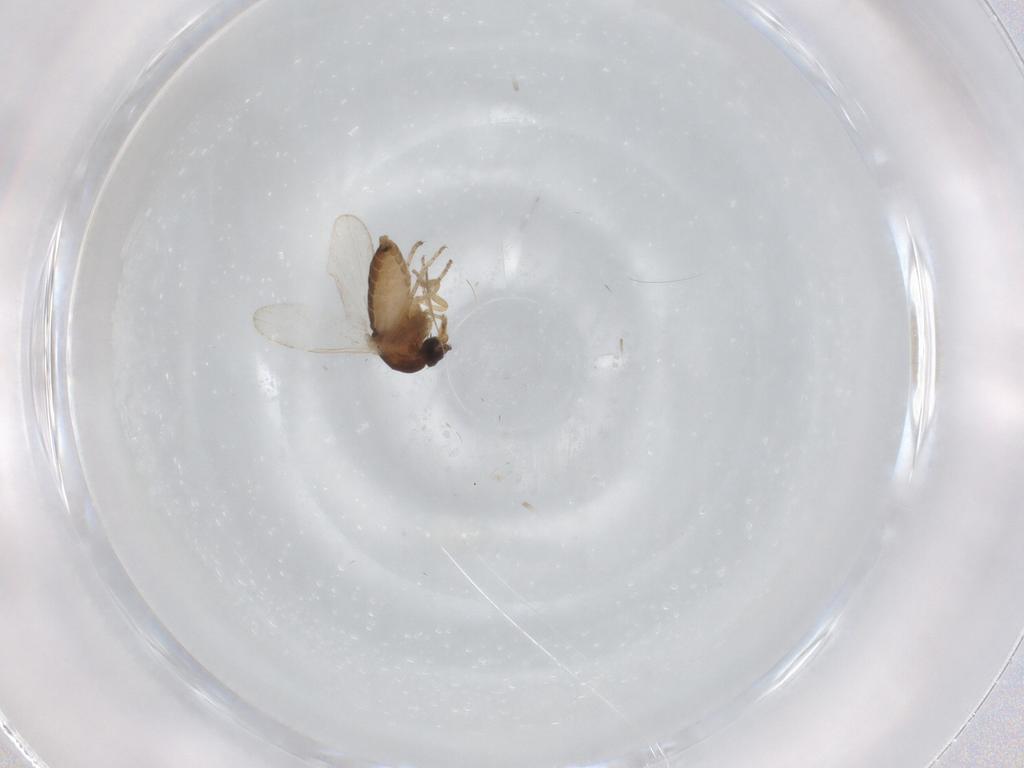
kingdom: Animalia
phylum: Arthropoda
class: Insecta
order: Diptera
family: Ceratopogonidae
